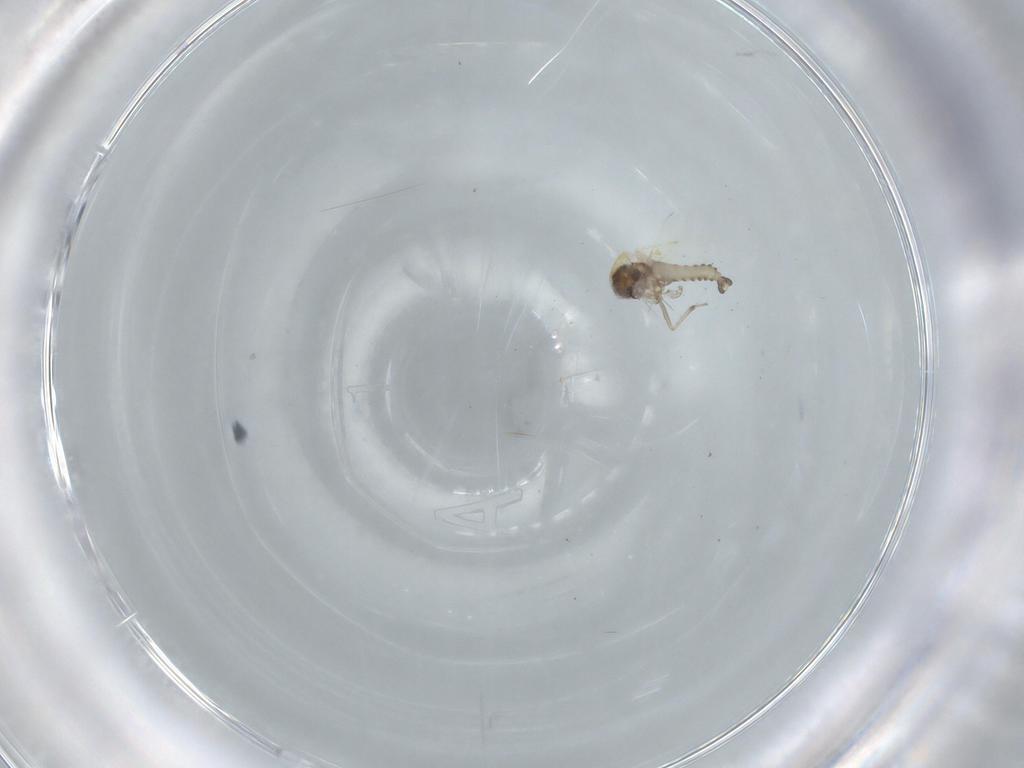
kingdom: Animalia
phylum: Arthropoda
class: Insecta
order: Diptera
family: Ceratopogonidae
